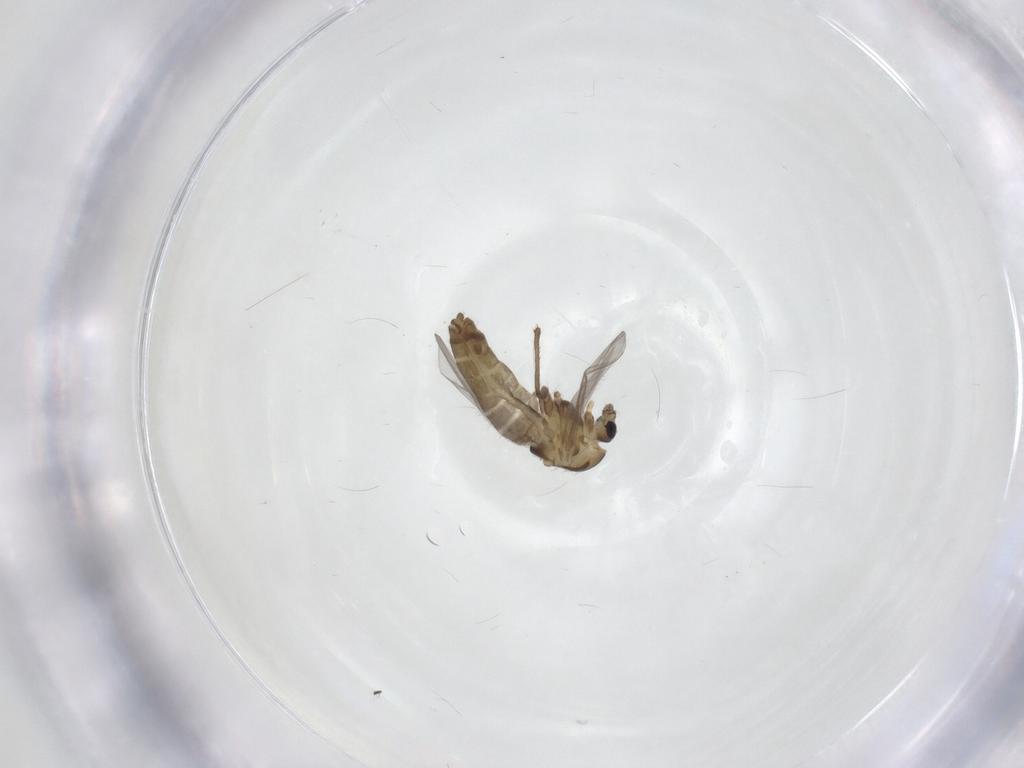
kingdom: Animalia
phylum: Arthropoda
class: Insecta
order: Diptera
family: Chironomidae
